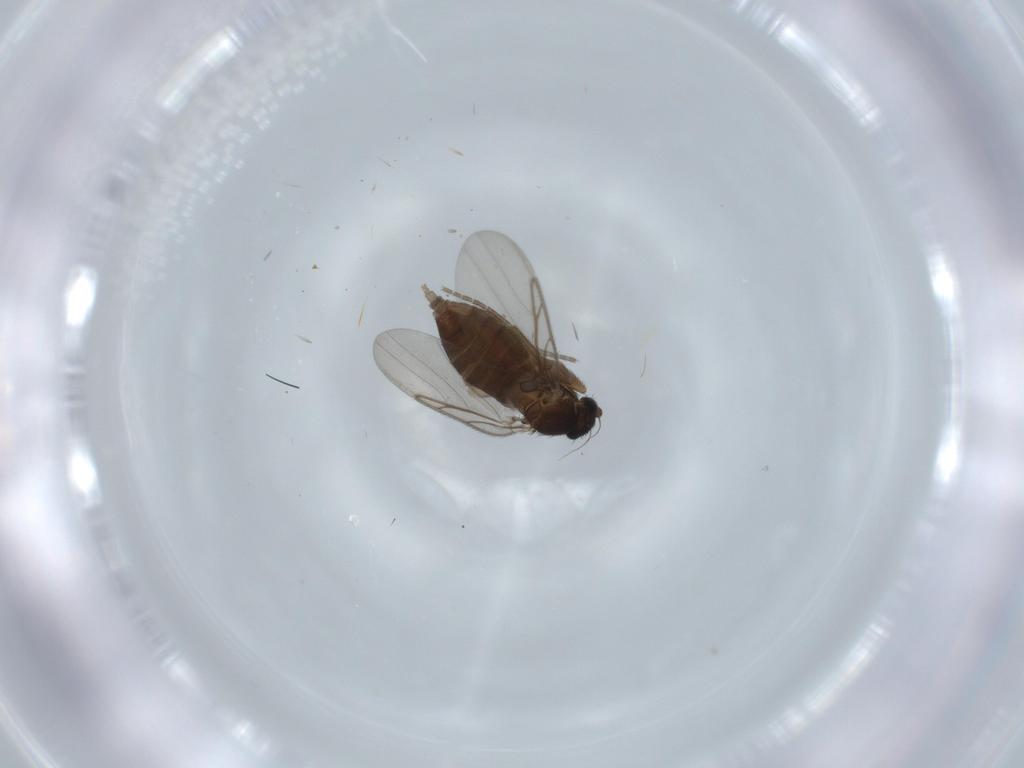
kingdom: Animalia
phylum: Arthropoda
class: Insecta
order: Diptera
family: Phoridae
